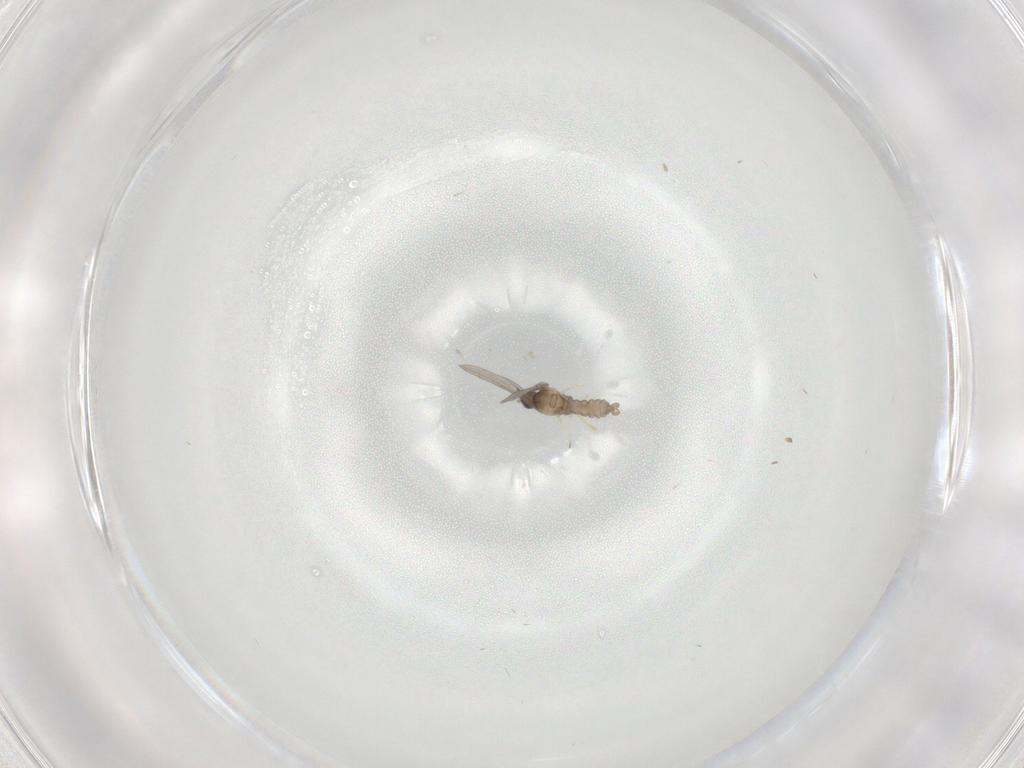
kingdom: Animalia
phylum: Arthropoda
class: Insecta
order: Diptera
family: Cecidomyiidae
